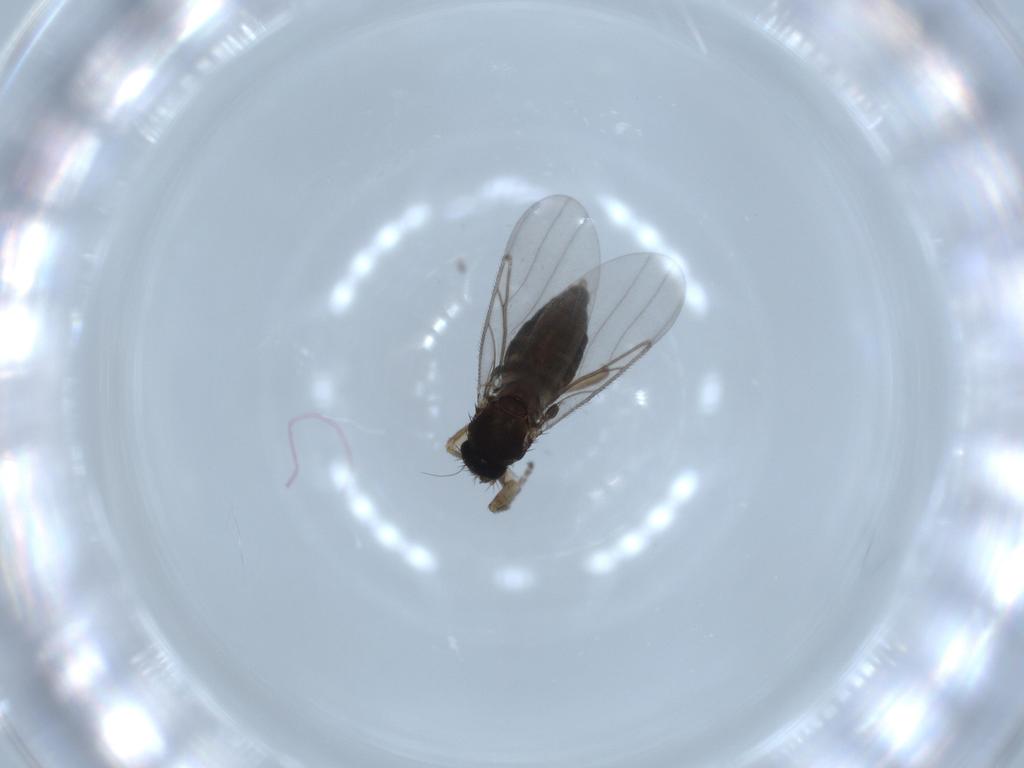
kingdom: Animalia
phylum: Arthropoda
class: Insecta
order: Diptera
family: Phoridae
